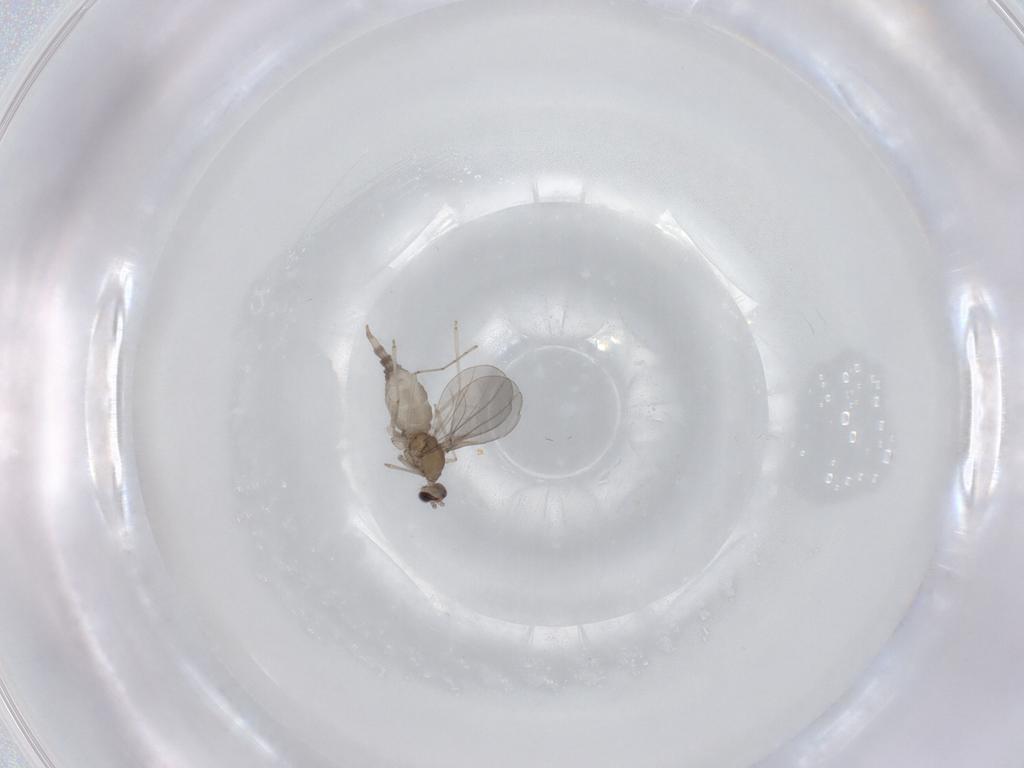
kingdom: Animalia
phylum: Arthropoda
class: Insecta
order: Diptera
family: Cecidomyiidae
